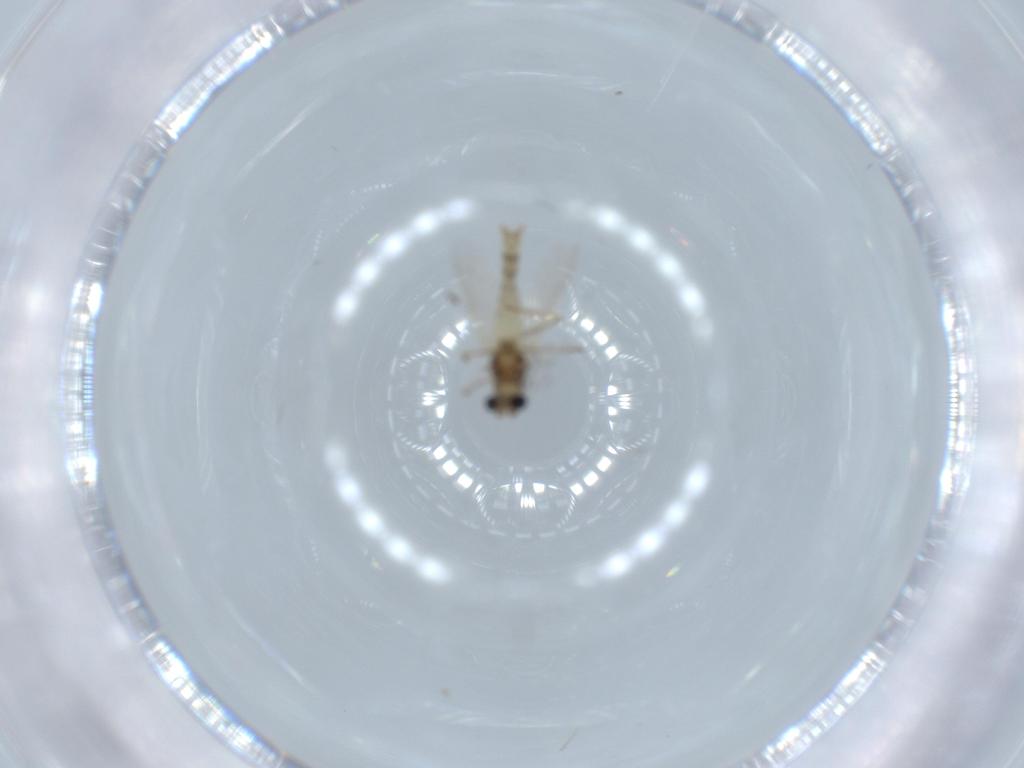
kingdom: Animalia
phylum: Arthropoda
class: Insecta
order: Diptera
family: Chironomidae
